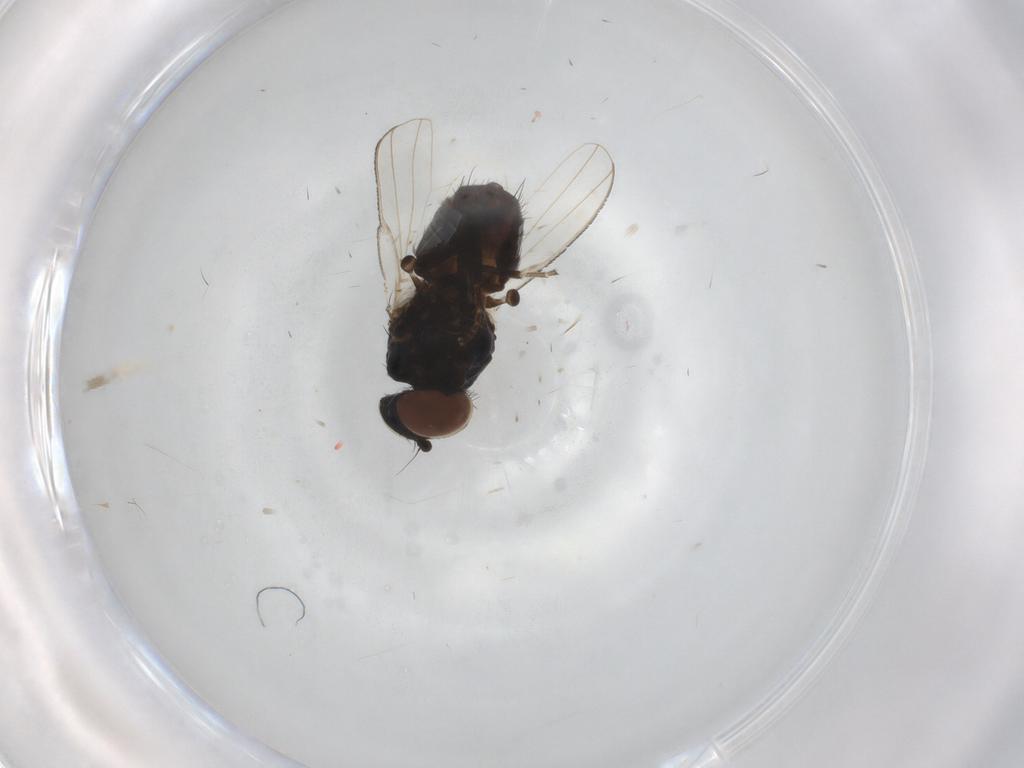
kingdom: Animalia
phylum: Arthropoda
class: Insecta
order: Diptera
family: Milichiidae
